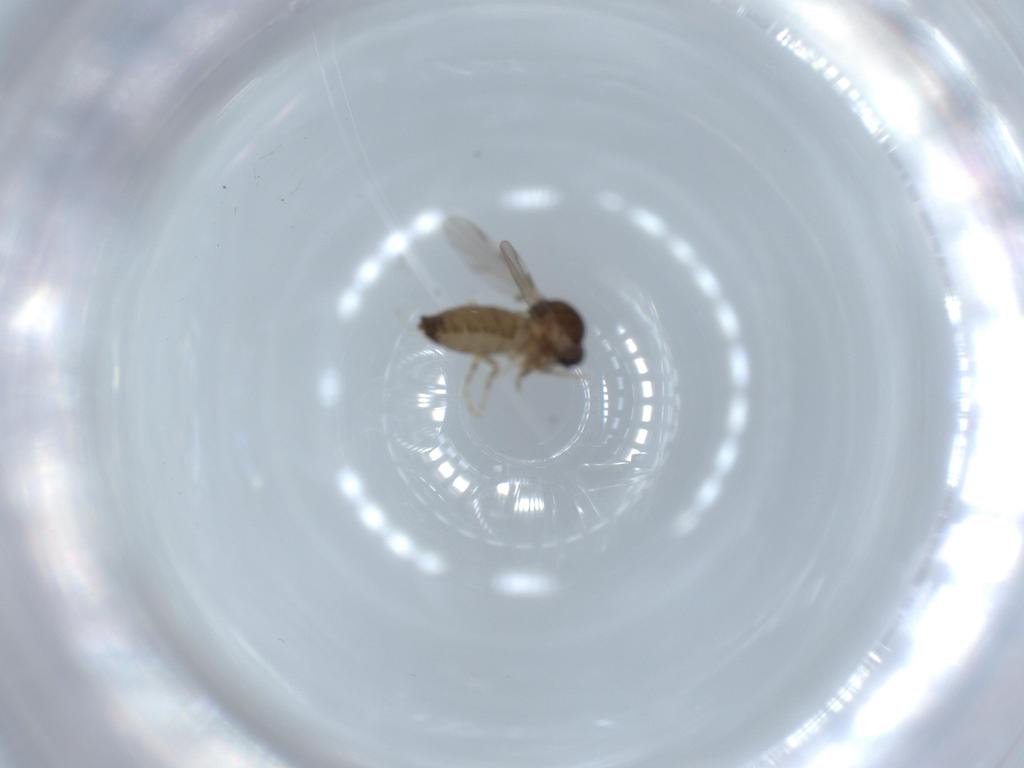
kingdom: Animalia
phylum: Arthropoda
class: Insecta
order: Diptera
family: Ceratopogonidae
